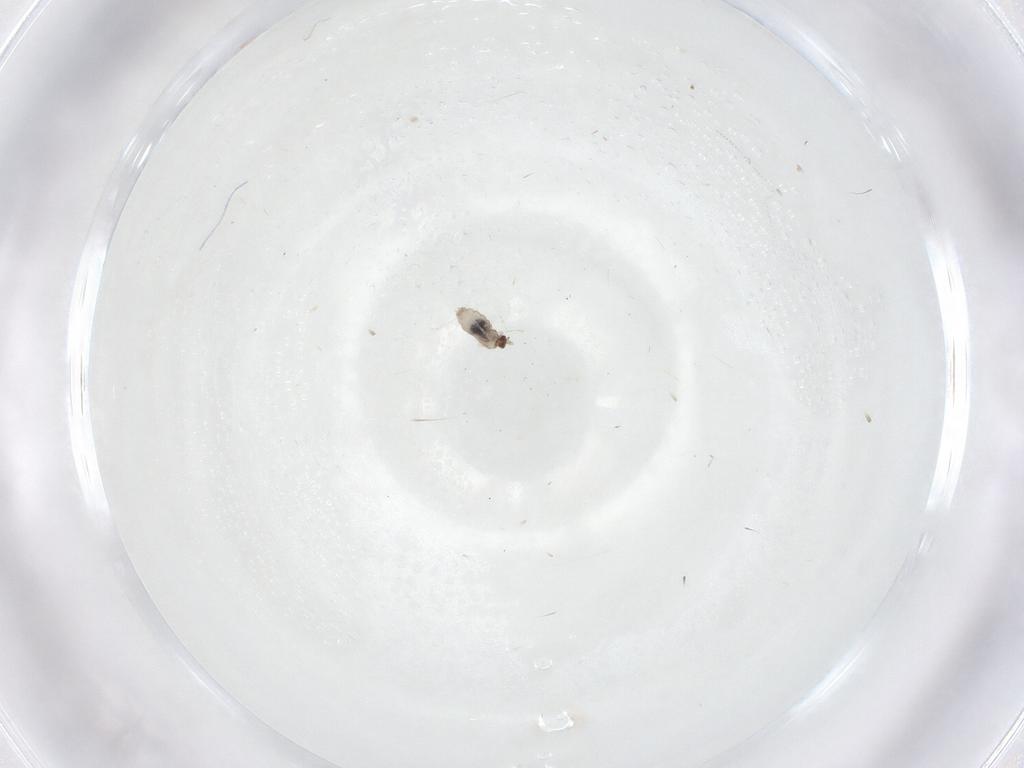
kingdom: Animalia
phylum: Arthropoda
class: Insecta
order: Diptera
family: Cecidomyiidae
